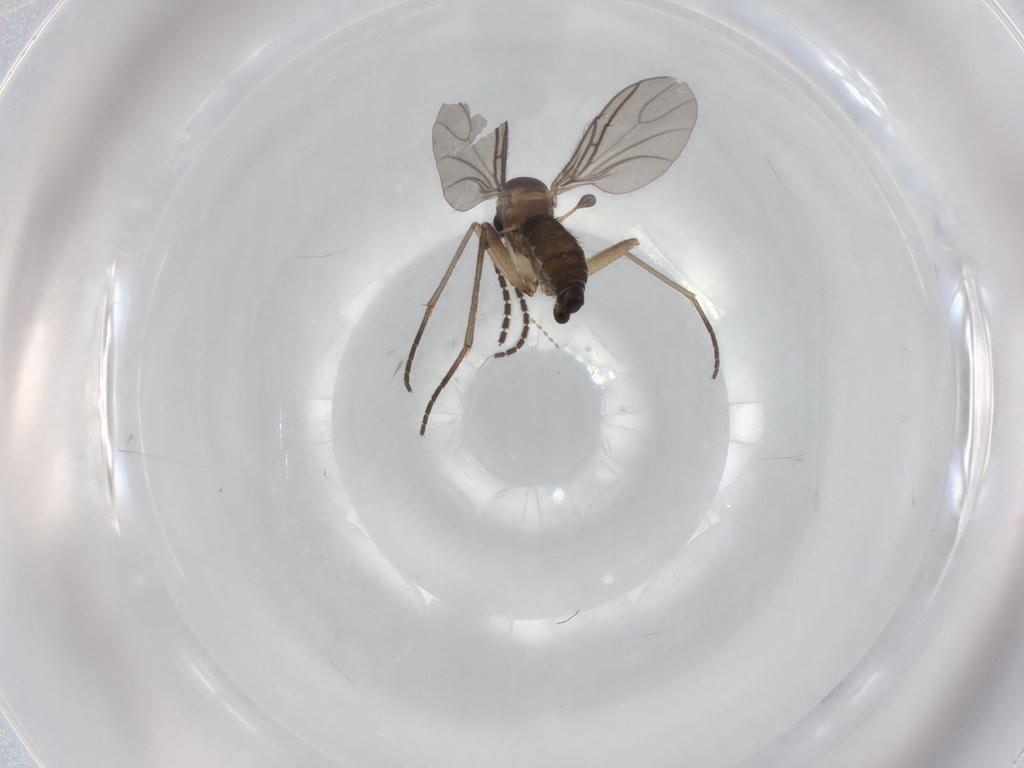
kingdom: Animalia
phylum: Arthropoda
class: Insecta
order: Diptera
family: Sciaridae
